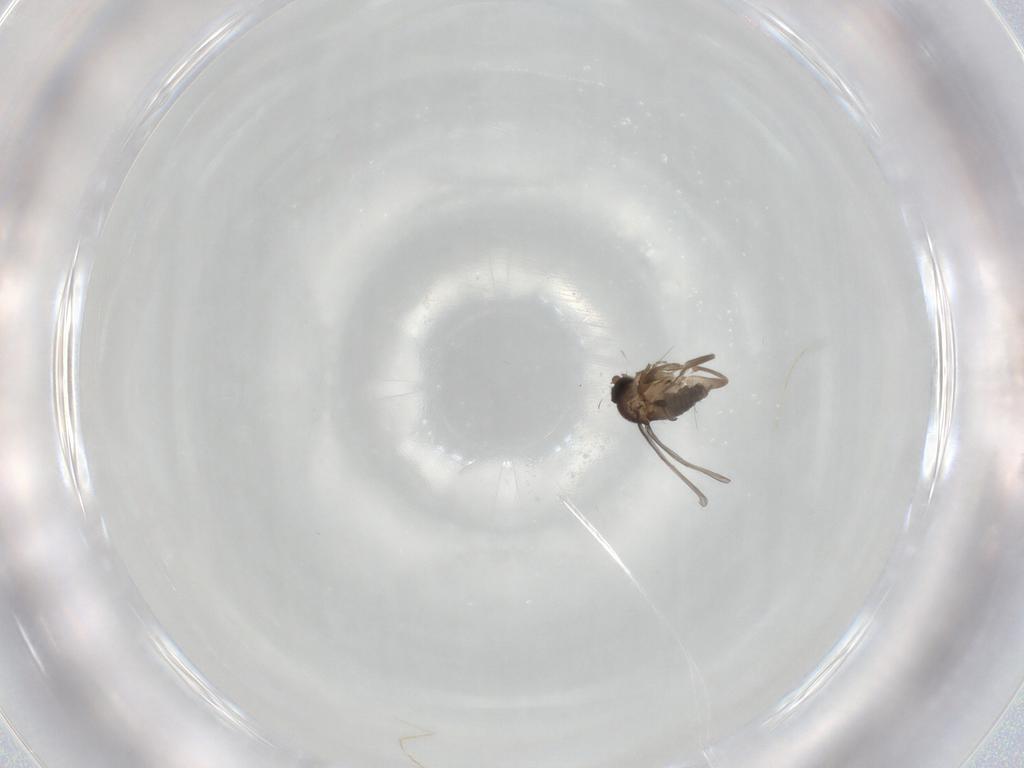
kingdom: Animalia
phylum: Arthropoda
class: Insecta
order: Diptera
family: Cecidomyiidae
